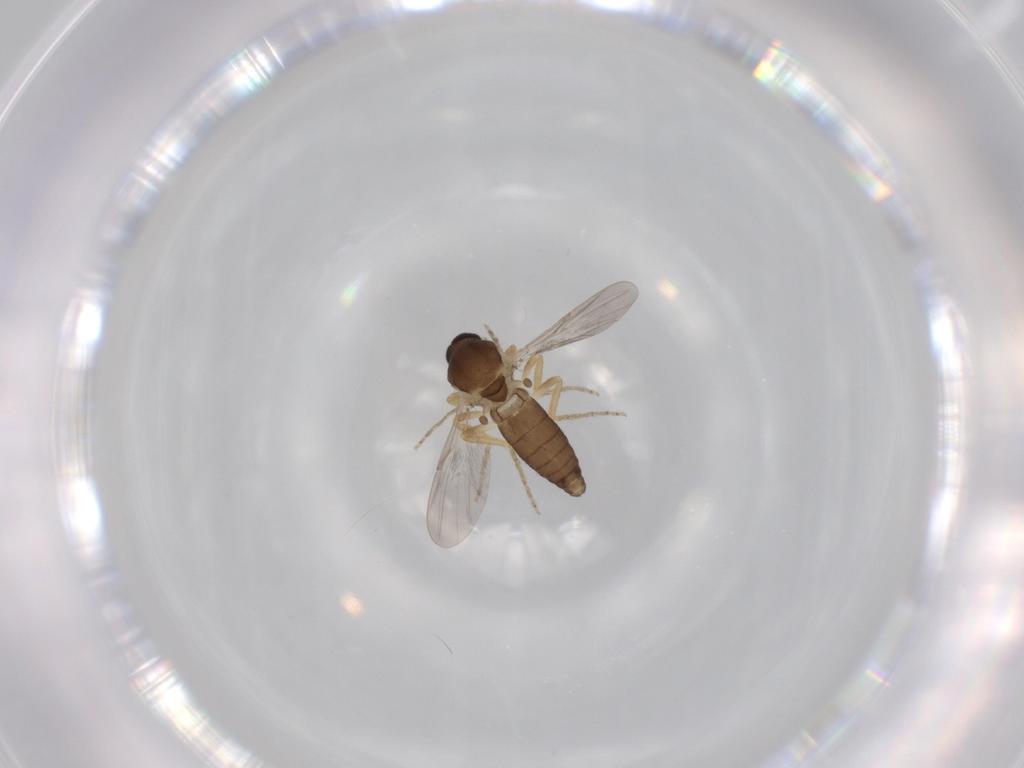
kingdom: Animalia
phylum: Arthropoda
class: Insecta
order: Diptera
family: Ceratopogonidae
